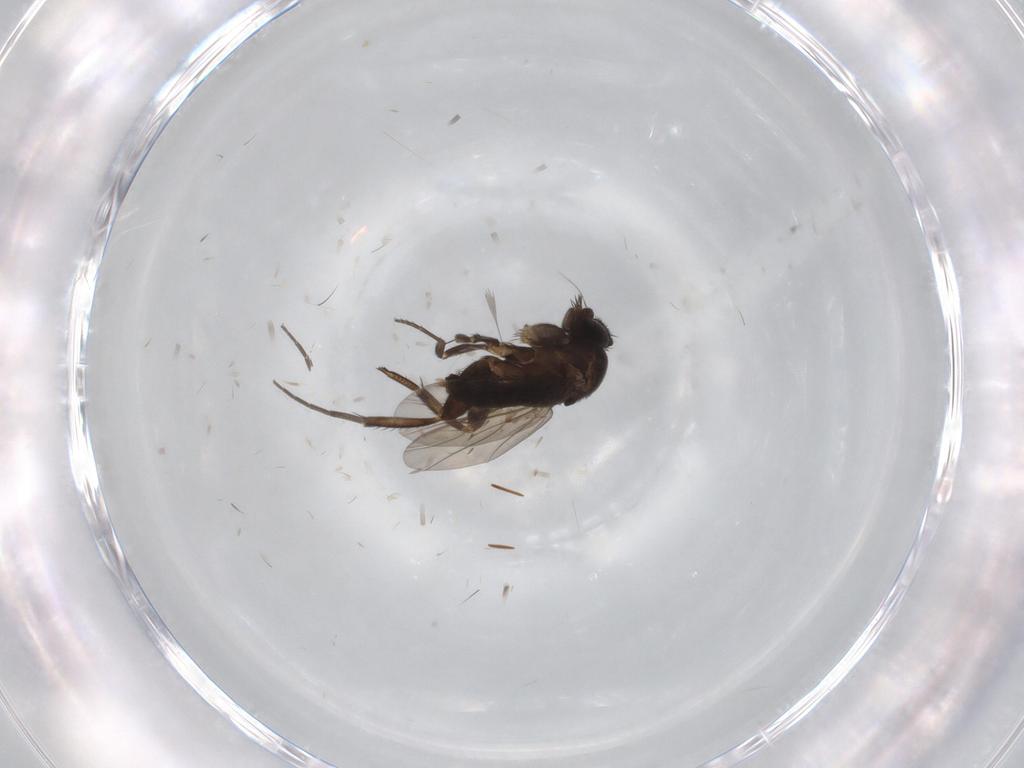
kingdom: Animalia
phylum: Arthropoda
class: Insecta
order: Diptera
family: Phoridae
